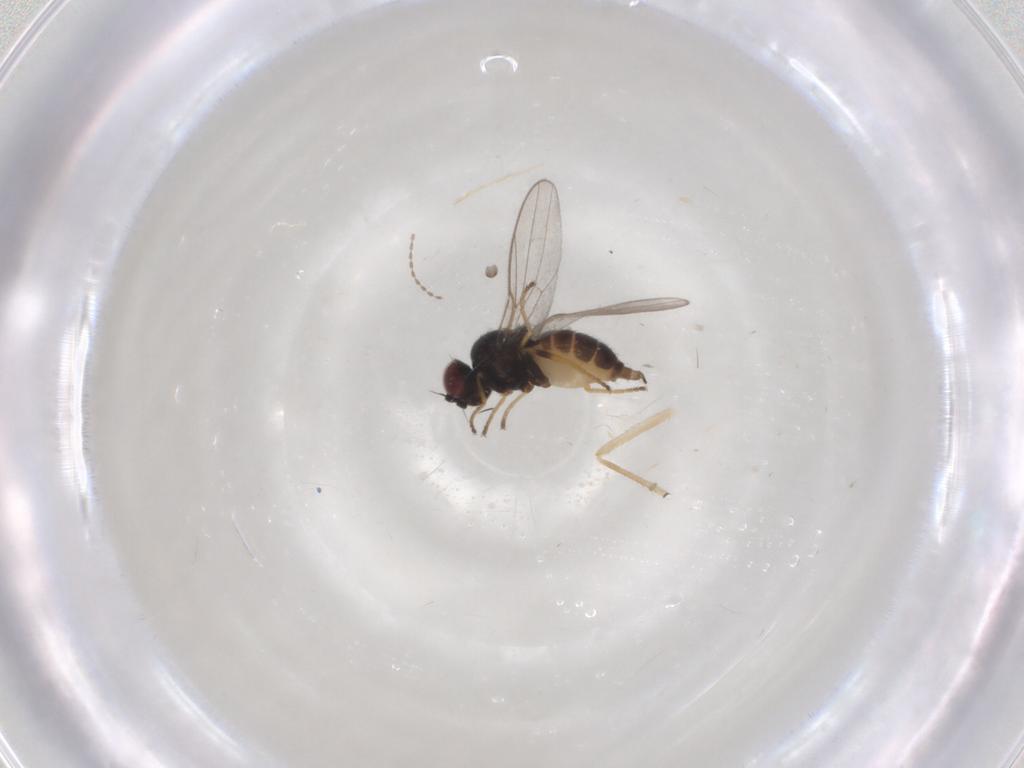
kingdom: Animalia
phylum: Arthropoda
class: Insecta
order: Diptera
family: Chloropidae
